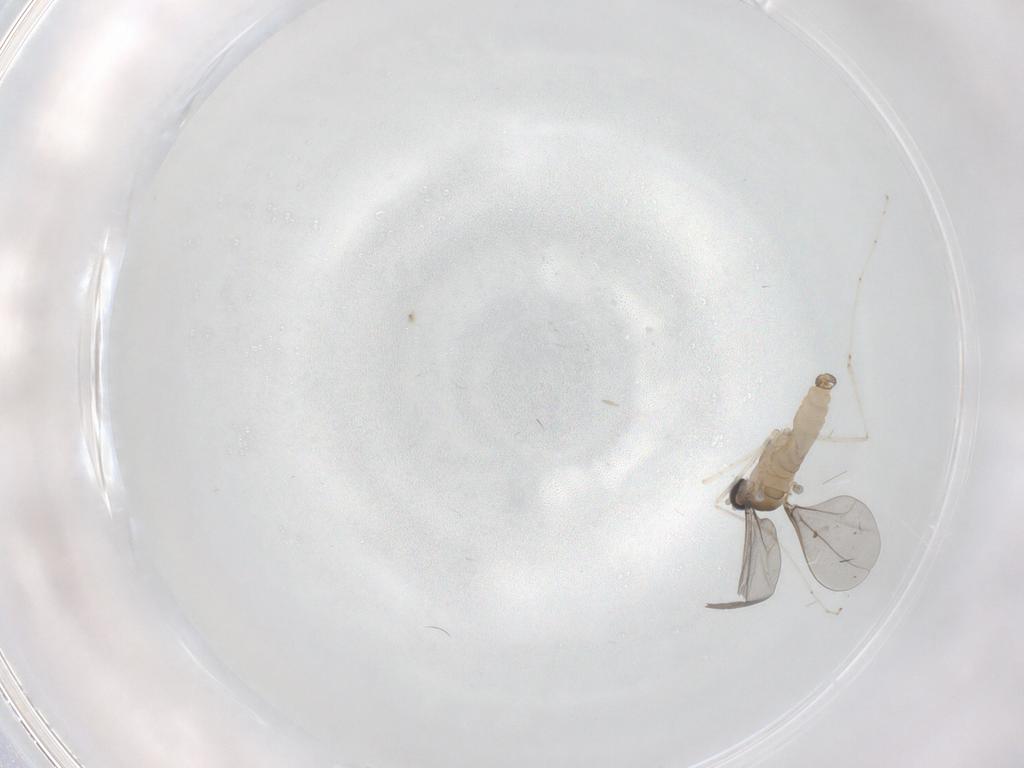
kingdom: Animalia
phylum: Arthropoda
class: Insecta
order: Diptera
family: Cecidomyiidae
